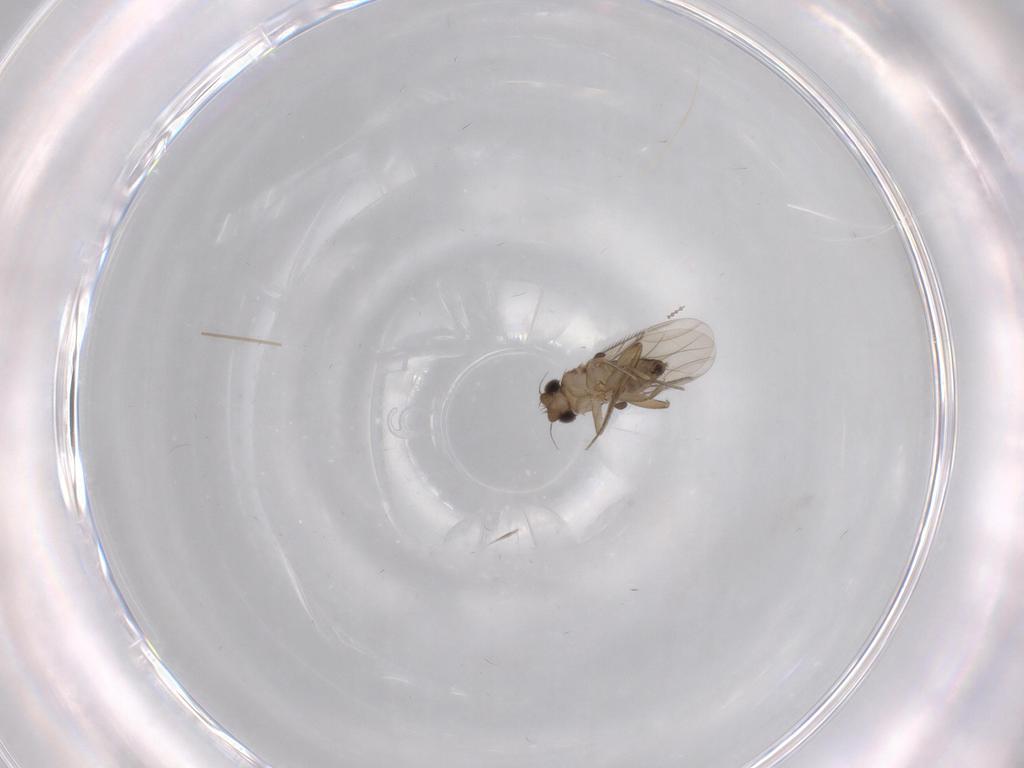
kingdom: Animalia
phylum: Arthropoda
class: Insecta
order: Diptera
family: Phoridae
